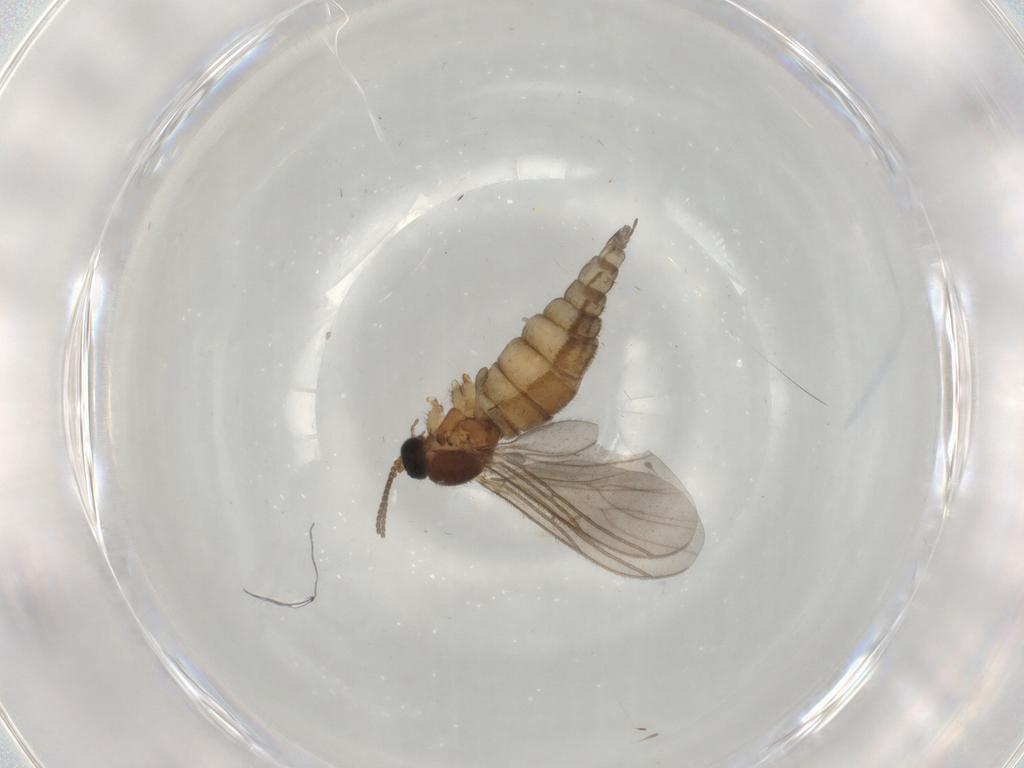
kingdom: Animalia
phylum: Arthropoda
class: Insecta
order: Diptera
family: Sciaridae
